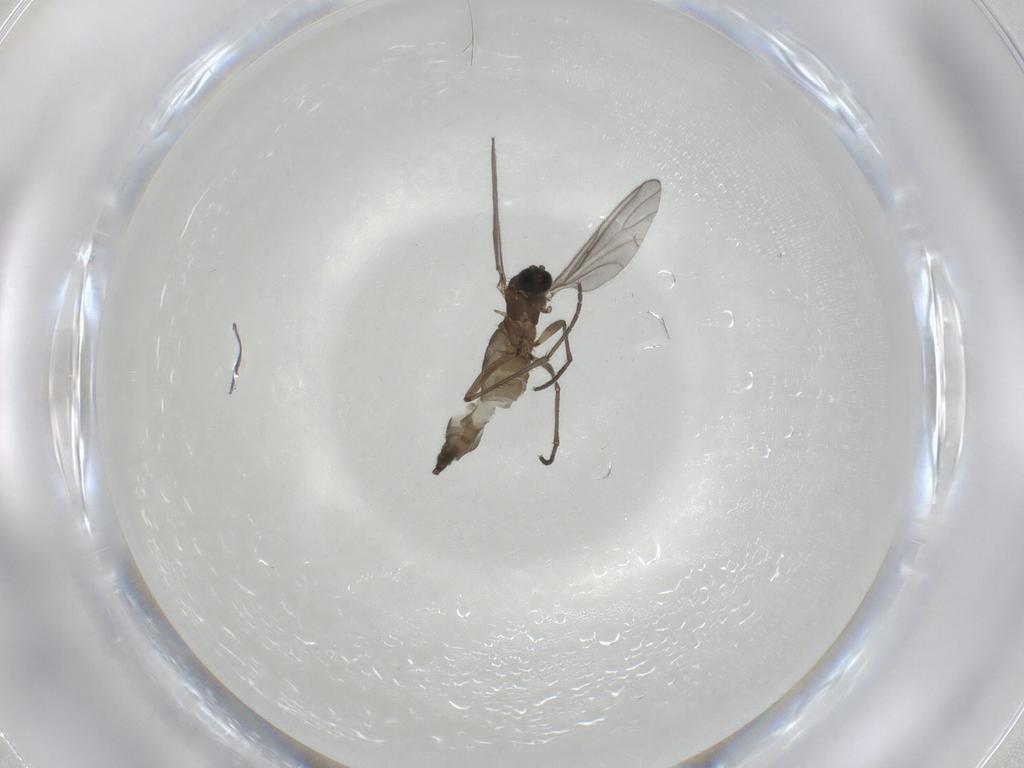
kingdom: Animalia
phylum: Arthropoda
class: Insecta
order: Diptera
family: Sciaridae
